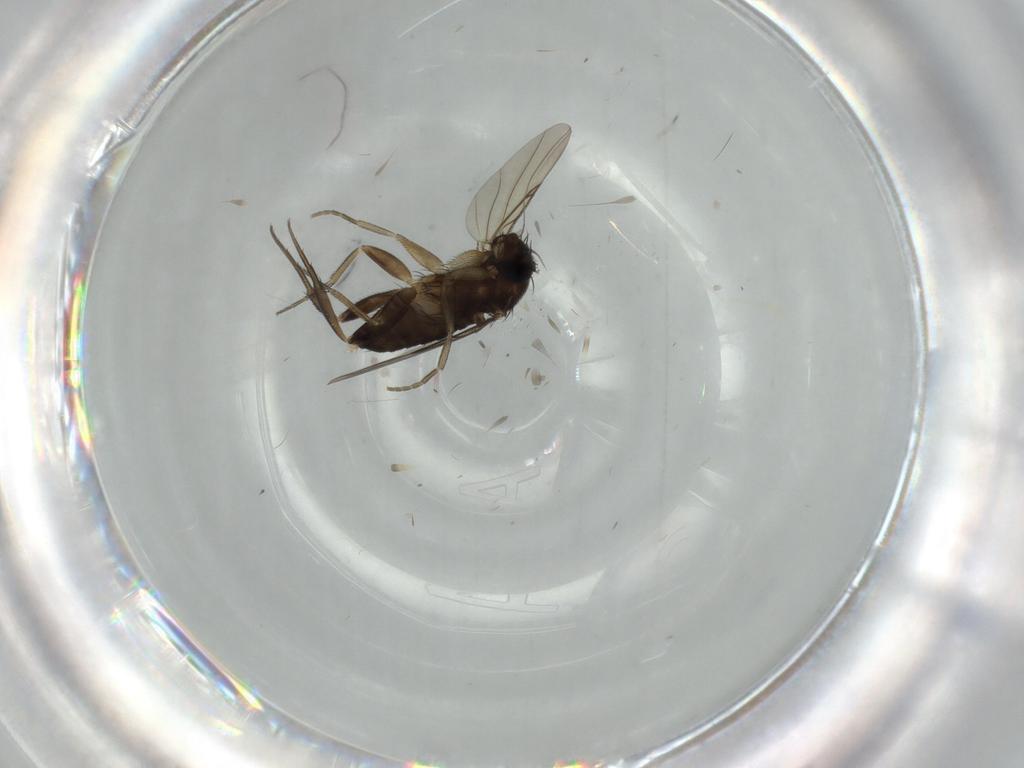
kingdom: Animalia
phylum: Arthropoda
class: Insecta
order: Diptera
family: Phoridae
